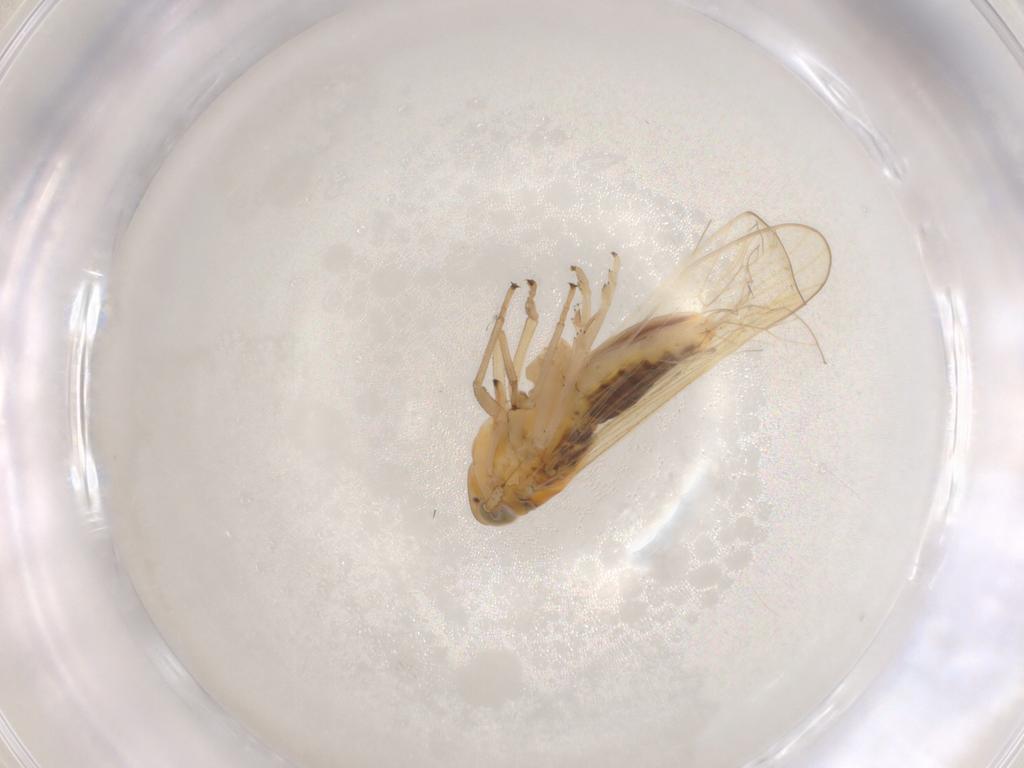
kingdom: Animalia
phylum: Arthropoda
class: Insecta
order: Hemiptera
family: Delphacidae
